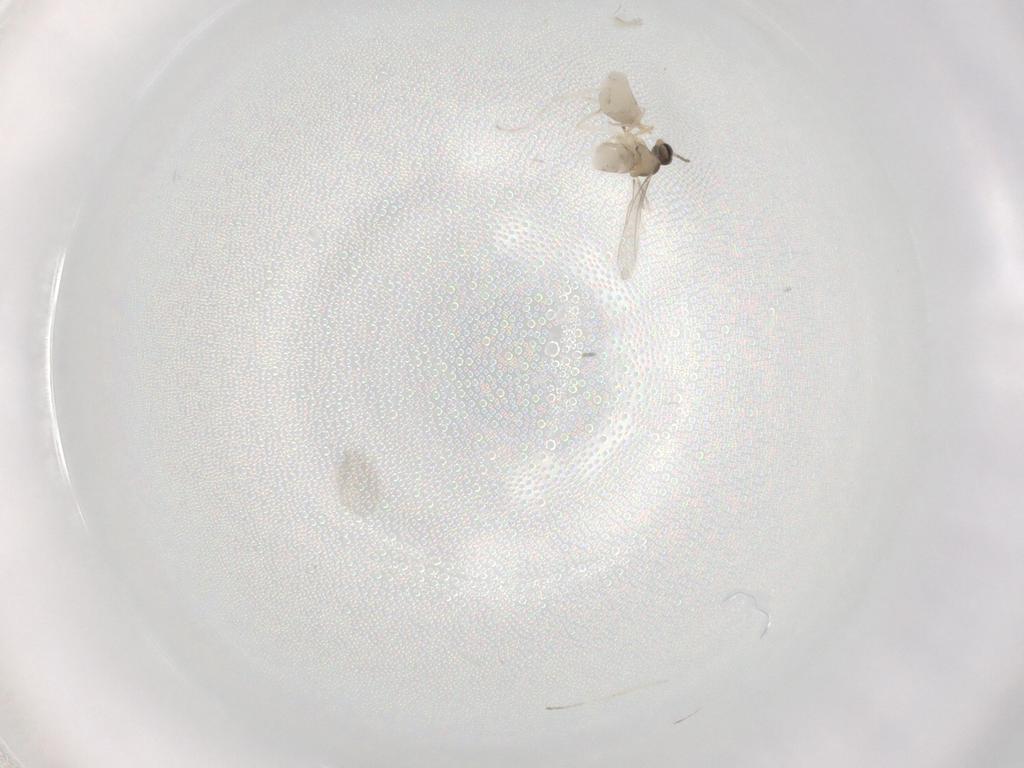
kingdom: Animalia
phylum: Arthropoda
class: Insecta
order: Diptera
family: Cecidomyiidae
